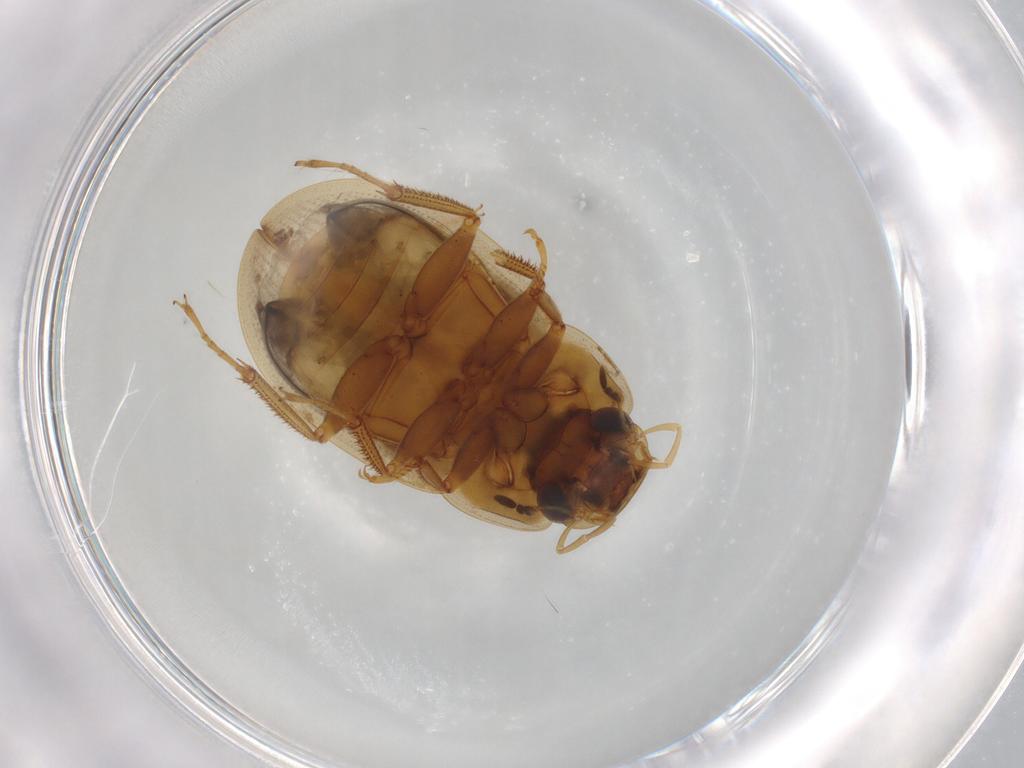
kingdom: Animalia
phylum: Arthropoda
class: Insecta
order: Coleoptera
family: Hydrophilidae
